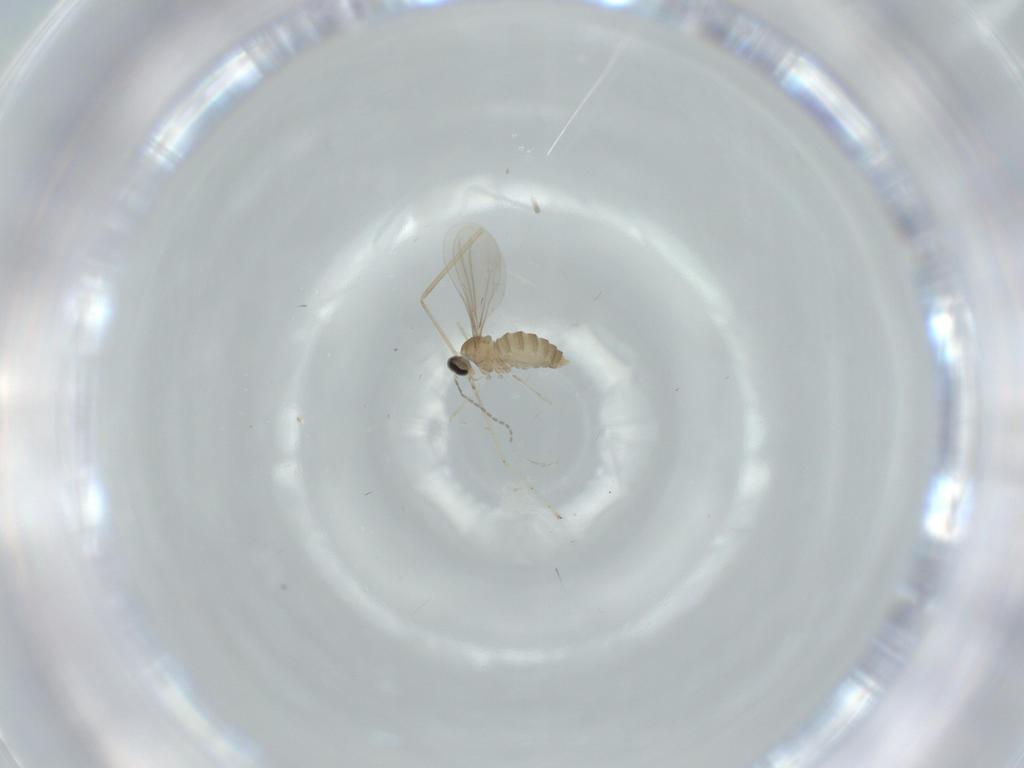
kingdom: Animalia
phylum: Arthropoda
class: Insecta
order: Diptera
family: Cecidomyiidae
